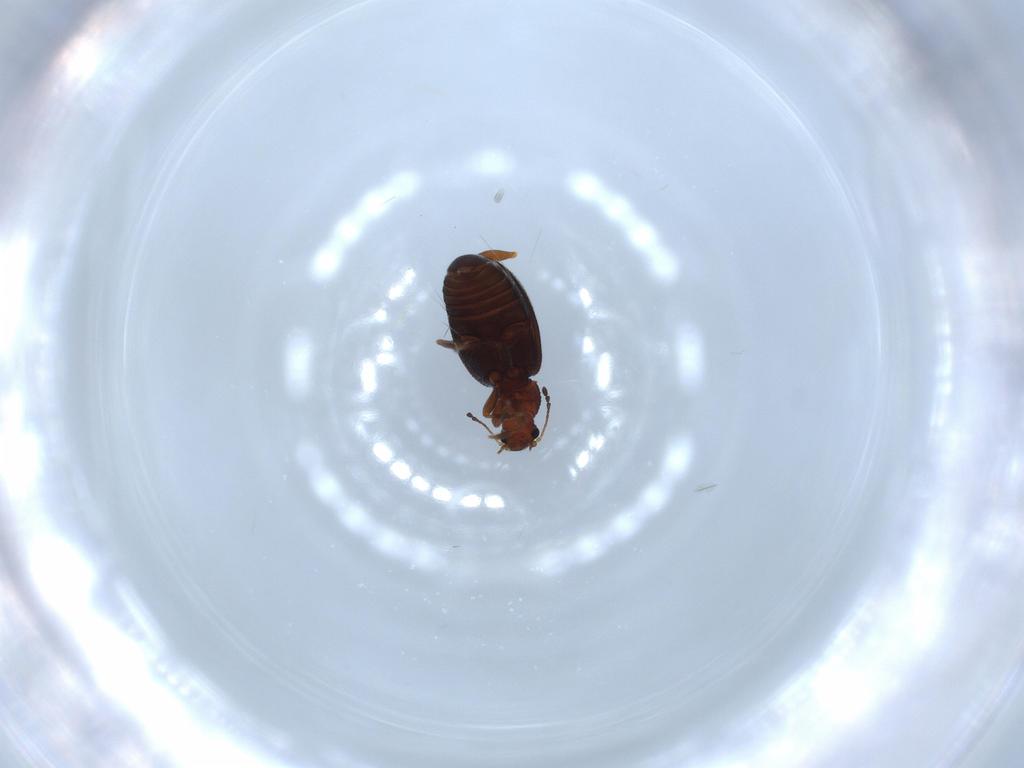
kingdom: Animalia
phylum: Arthropoda
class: Insecta
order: Coleoptera
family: Latridiidae
